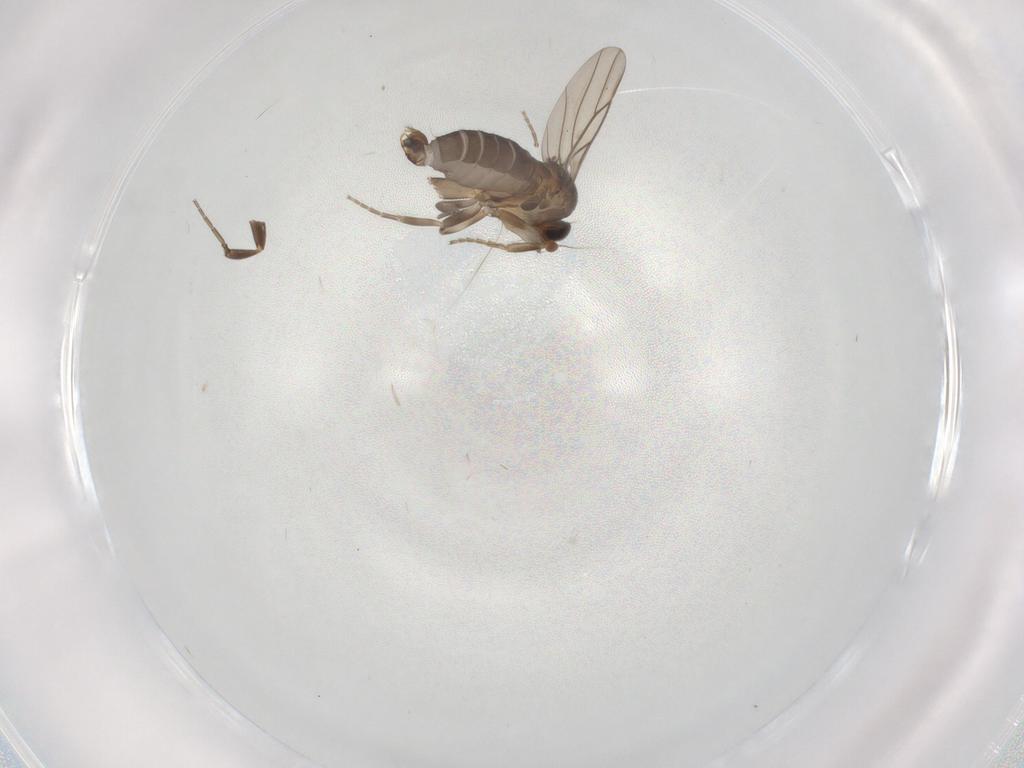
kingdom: Animalia
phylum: Arthropoda
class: Insecta
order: Diptera
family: Phoridae
